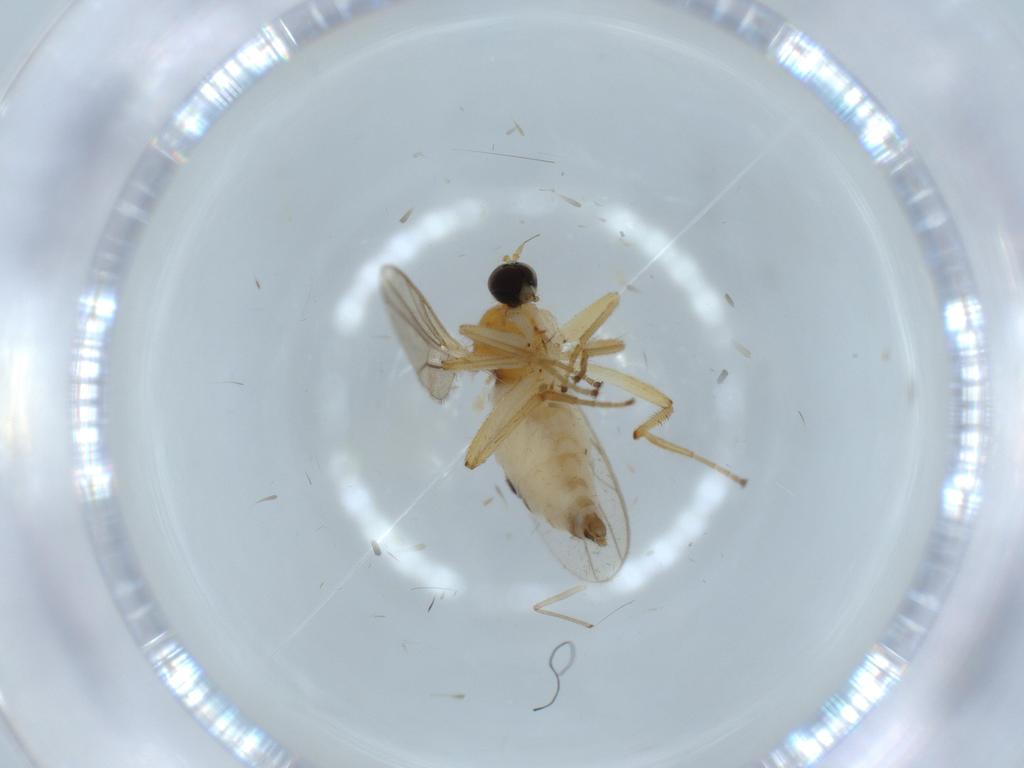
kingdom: Animalia
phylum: Arthropoda
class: Insecta
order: Diptera
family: Hybotidae
